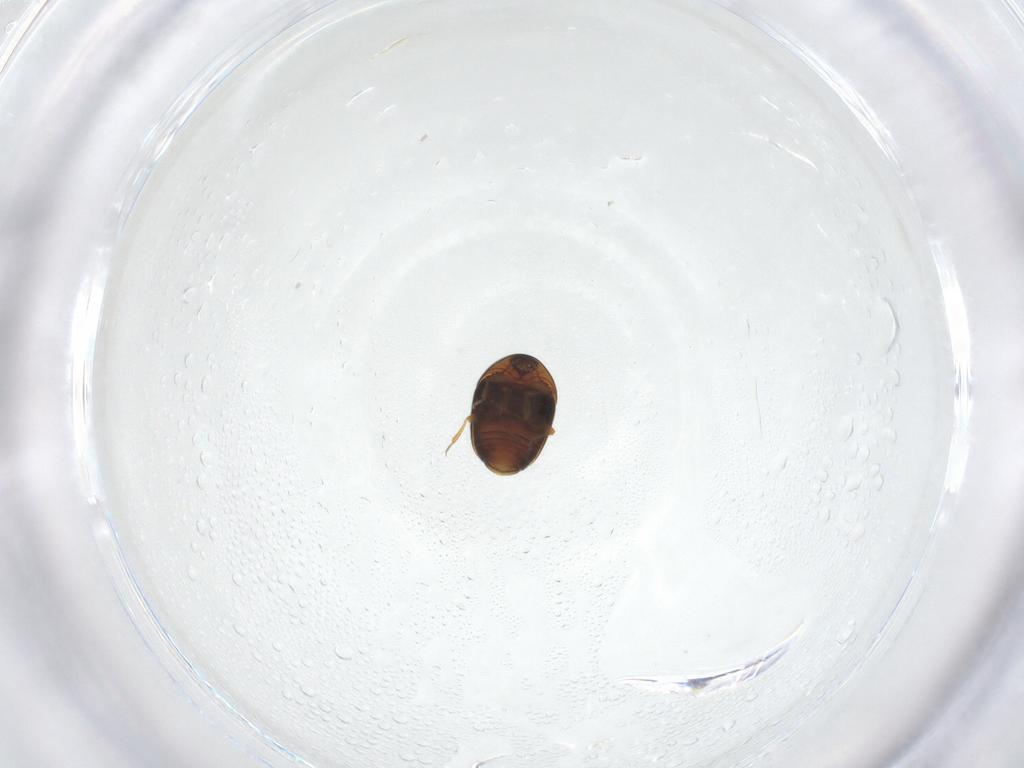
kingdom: Animalia
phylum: Arthropoda
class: Insecta
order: Coleoptera
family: Corylophidae
